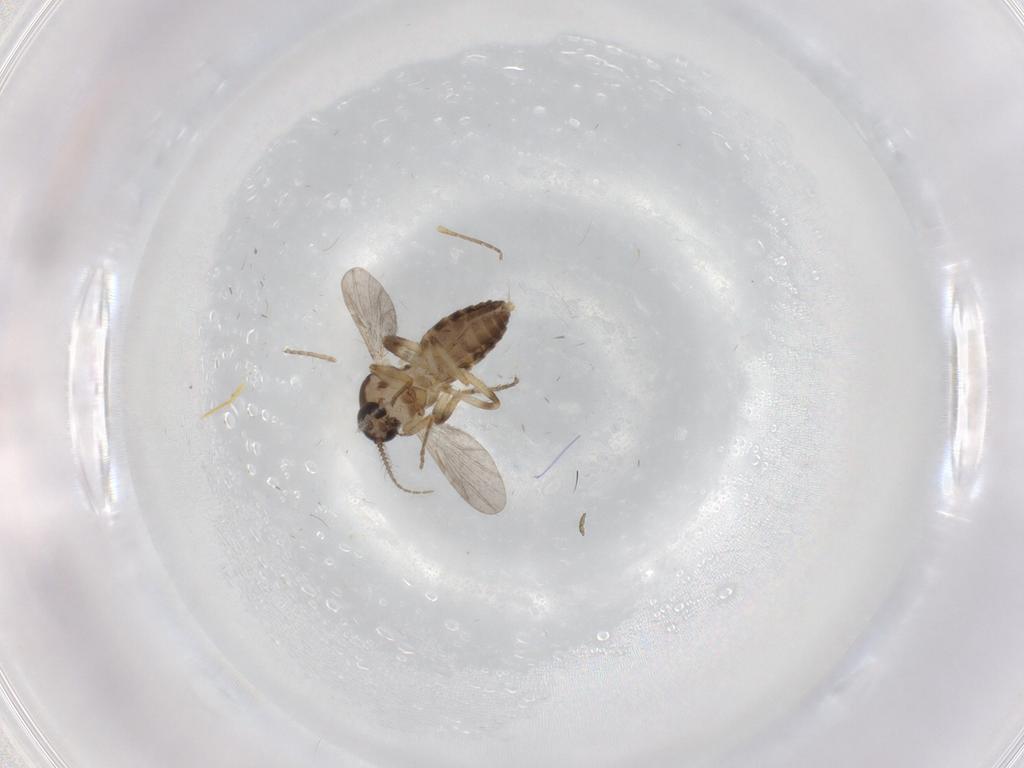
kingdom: Animalia
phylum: Arthropoda
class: Insecta
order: Diptera
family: Ceratopogonidae
